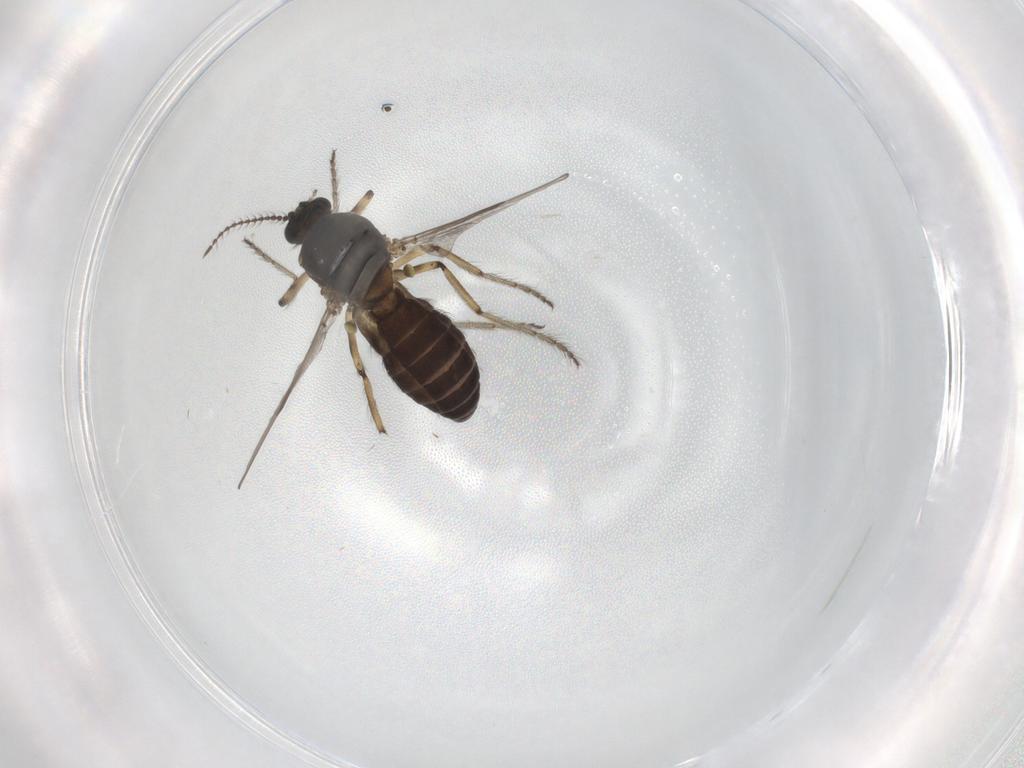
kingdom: Animalia
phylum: Arthropoda
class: Insecta
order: Diptera
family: Ceratopogonidae
